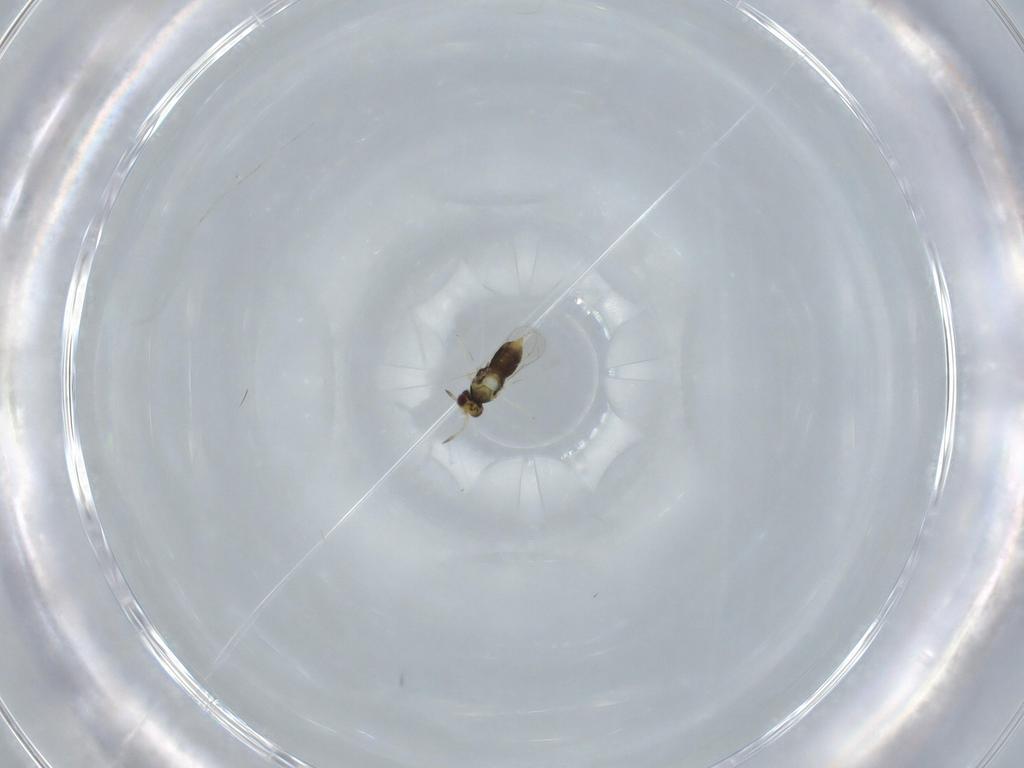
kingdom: Animalia
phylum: Arthropoda
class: Insecta
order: Hymenoptera
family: Aphelinidae
